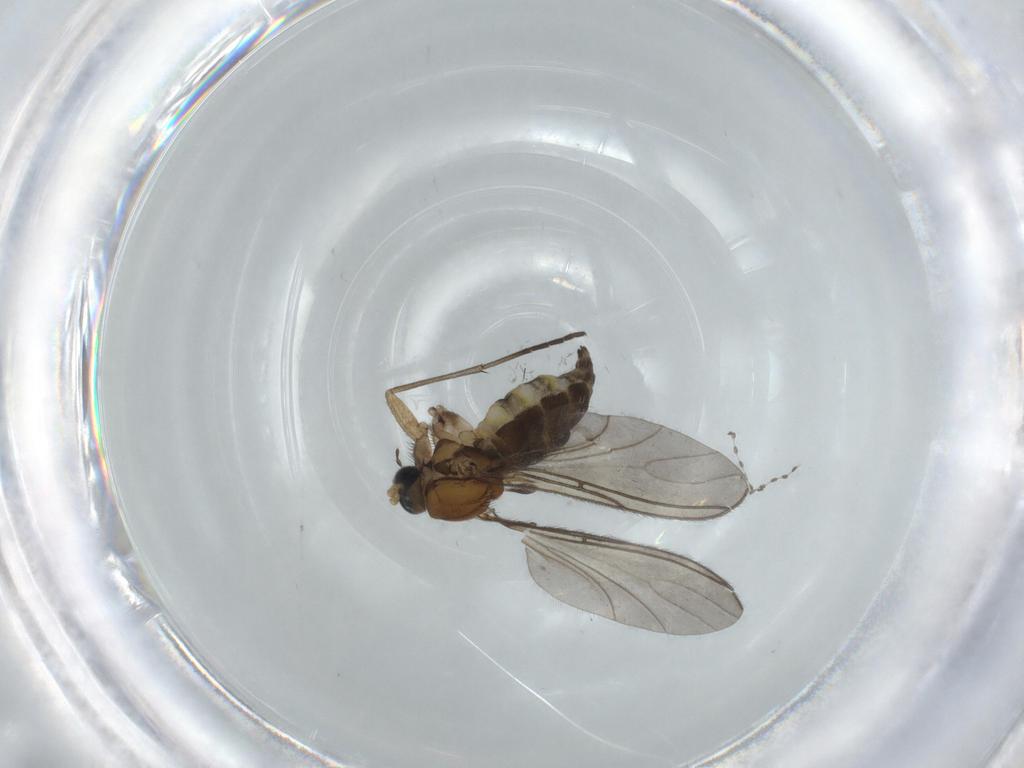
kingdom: Animalia
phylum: Arthropoda
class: Insecta
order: Diptera
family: Sciaridae
